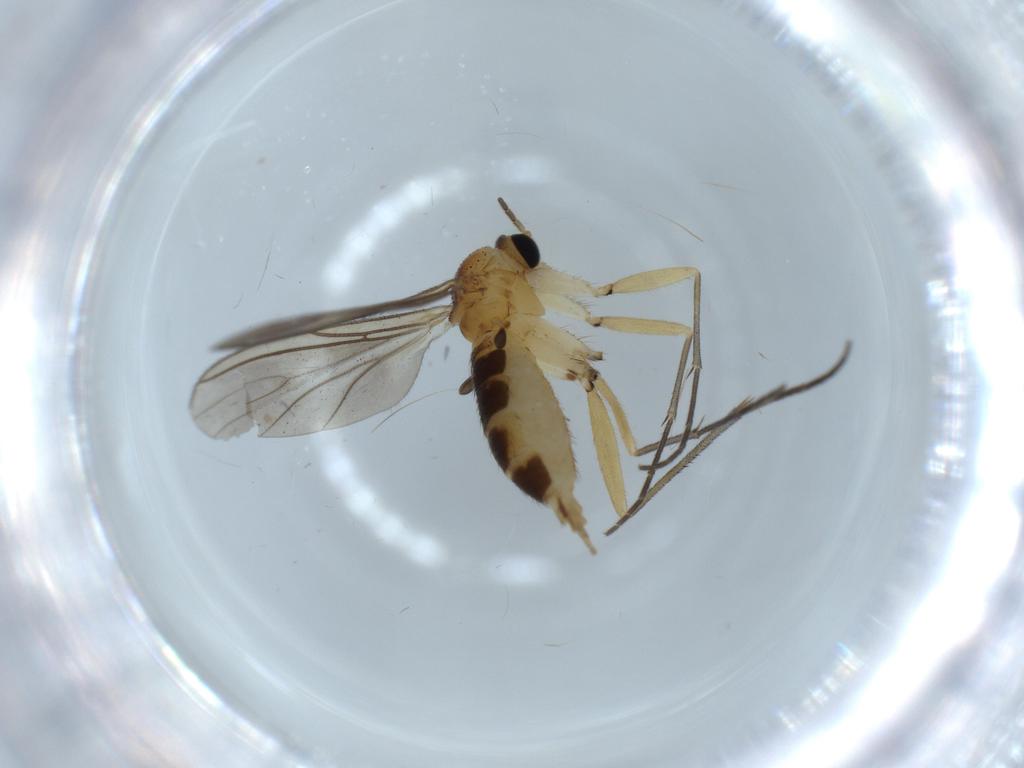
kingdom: Animalia
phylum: Arthropoda
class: Insecta
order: Diptera
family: Sciaridae
